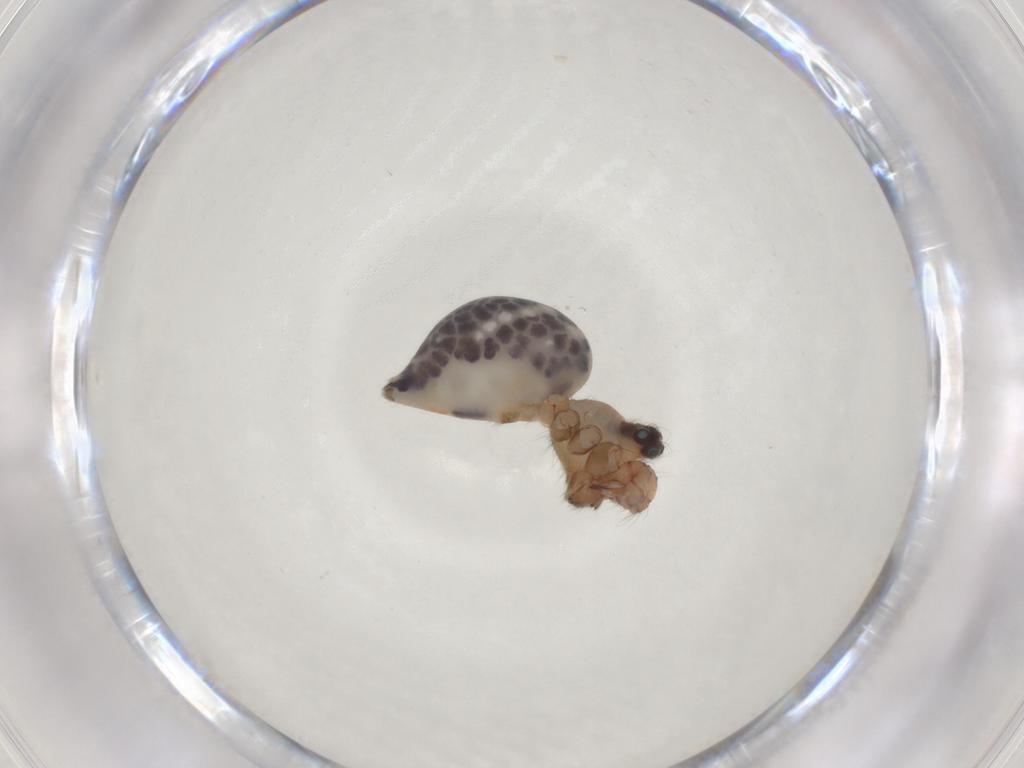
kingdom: Animalia
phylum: Arthropoda
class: Arachnida
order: Araneae
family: Pholcidae
